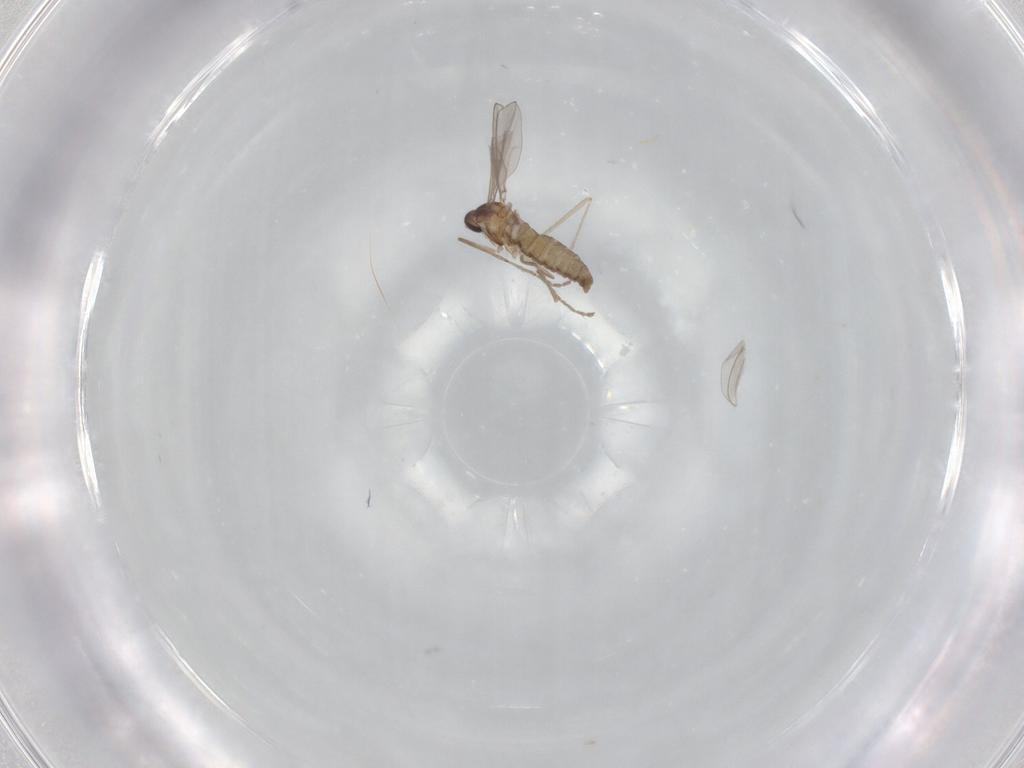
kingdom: Animalia
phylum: Arthropoda
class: Insecta
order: Diptera
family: Cecidomyiidae
